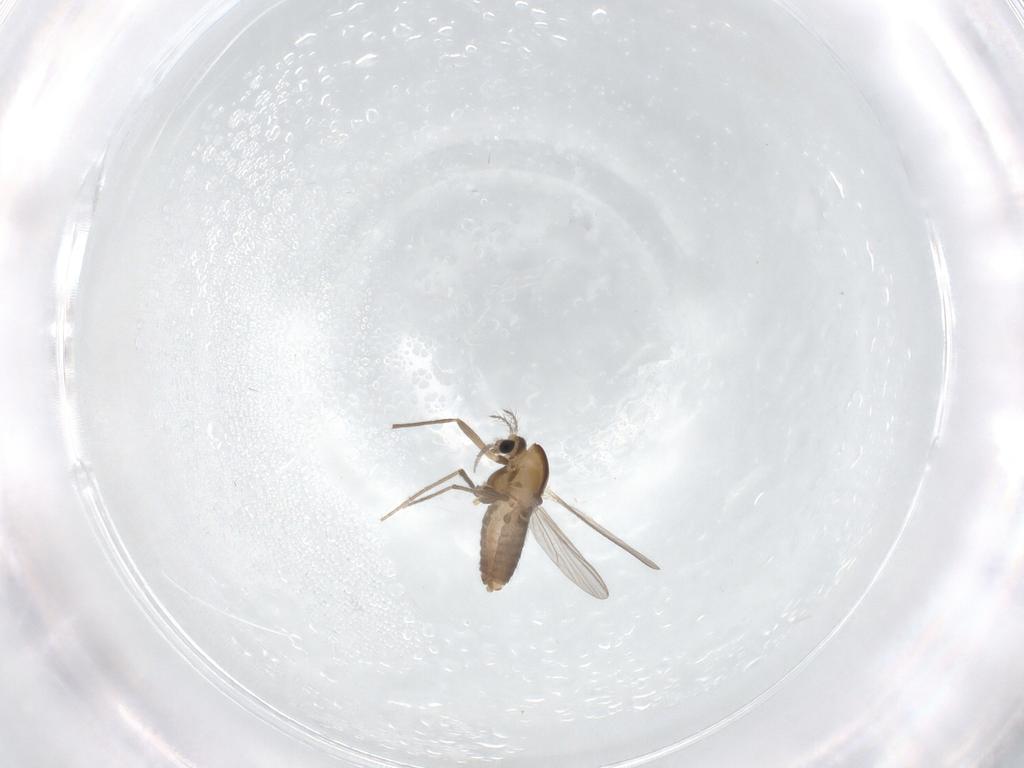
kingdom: Animalia
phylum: Arthropoda
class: Insecta
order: Diptera
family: Chironomidae
